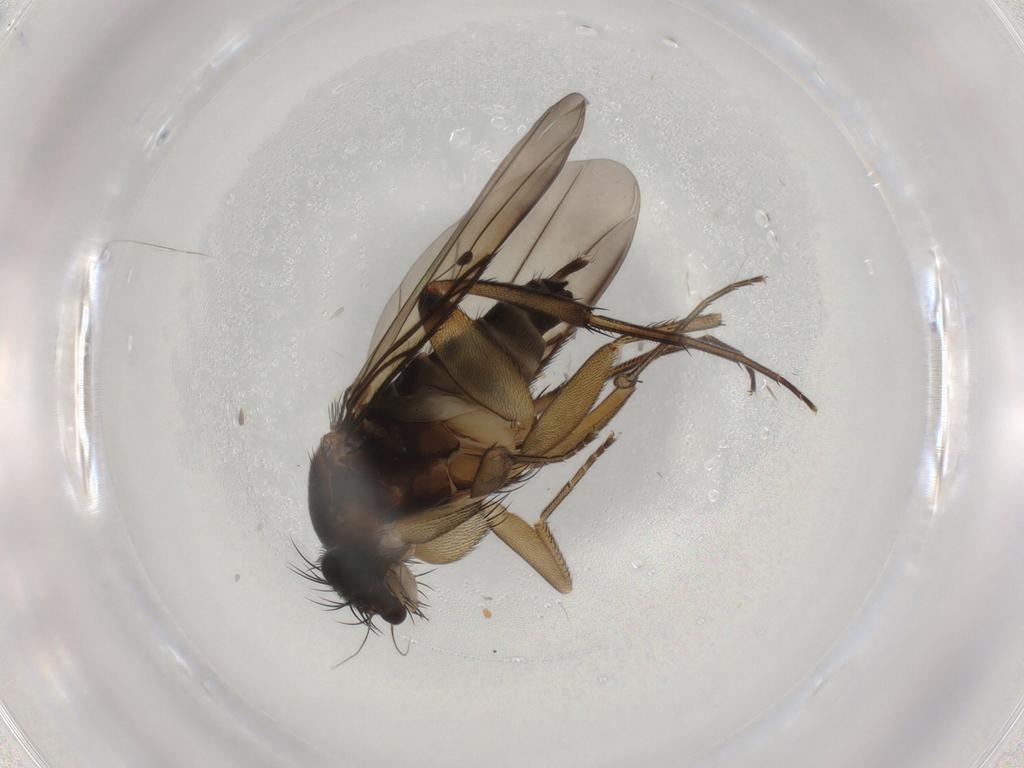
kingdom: Animalia
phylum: Arthropoda
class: Insecta
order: Diptera
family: Phoridae
